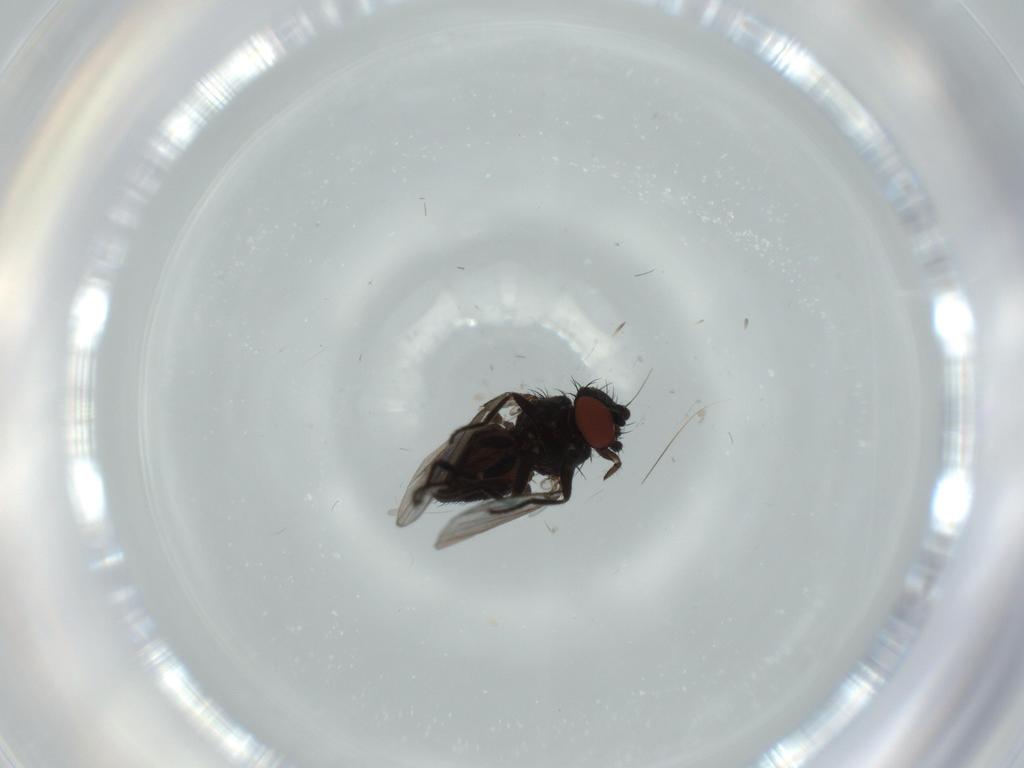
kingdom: Animalia
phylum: Arthropoda
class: Insecta
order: Diptera
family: Milichiidae
